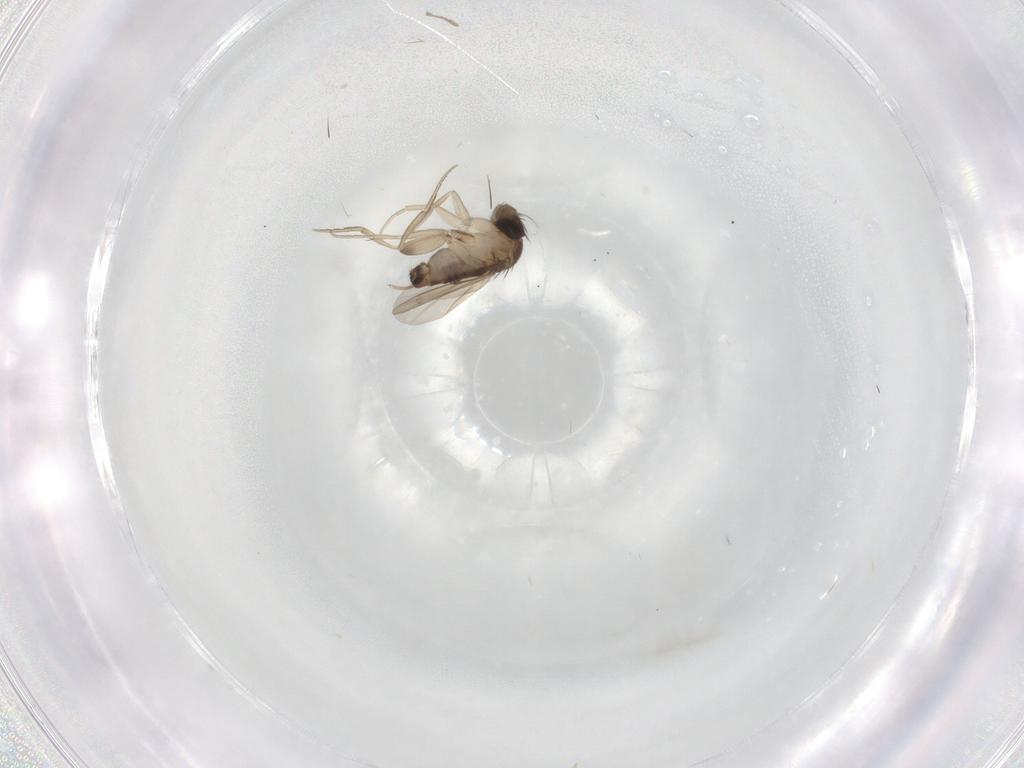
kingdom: Animalia
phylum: Arthropoda
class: Insecta
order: Diptera
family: Phoridae
